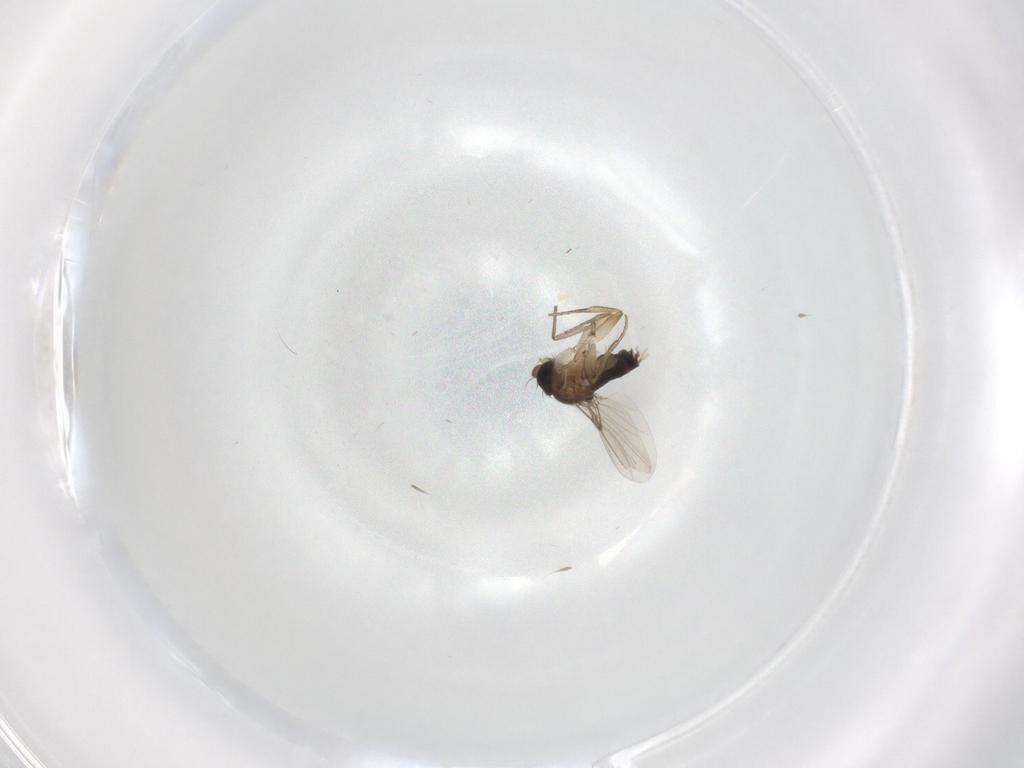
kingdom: Animalia
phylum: Arthropoda
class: Insecta
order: Diptera
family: Phoridae
